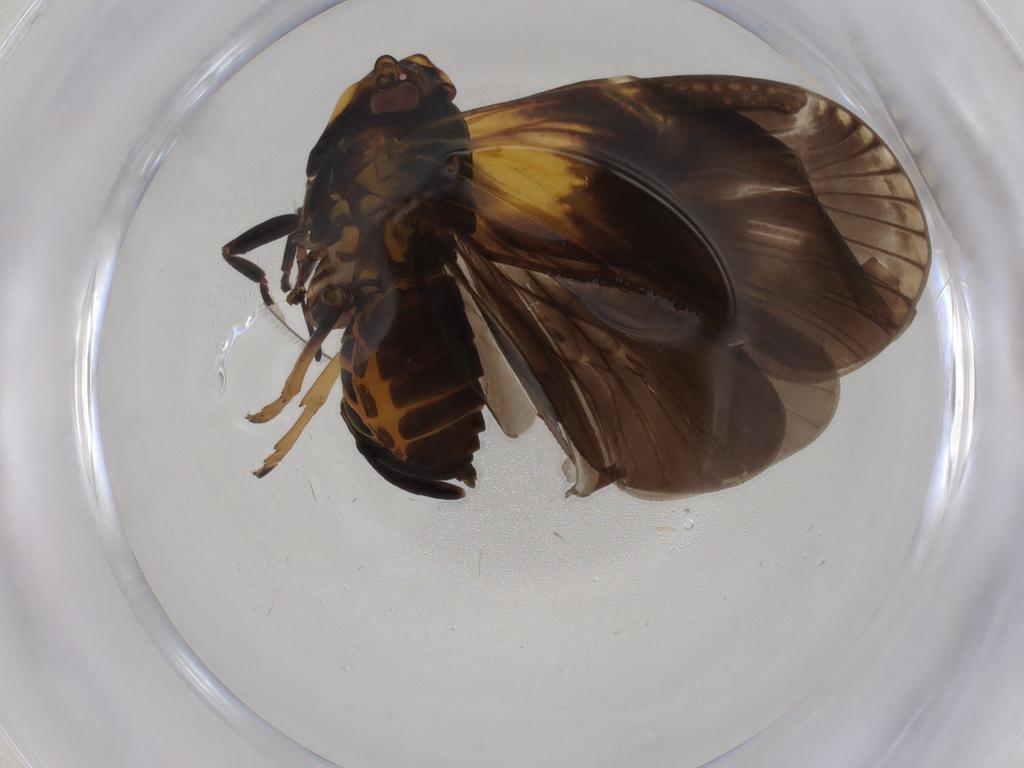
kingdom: Animalia
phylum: Arthropoda
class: Insecta
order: Hemiptera
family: Cixiidae
